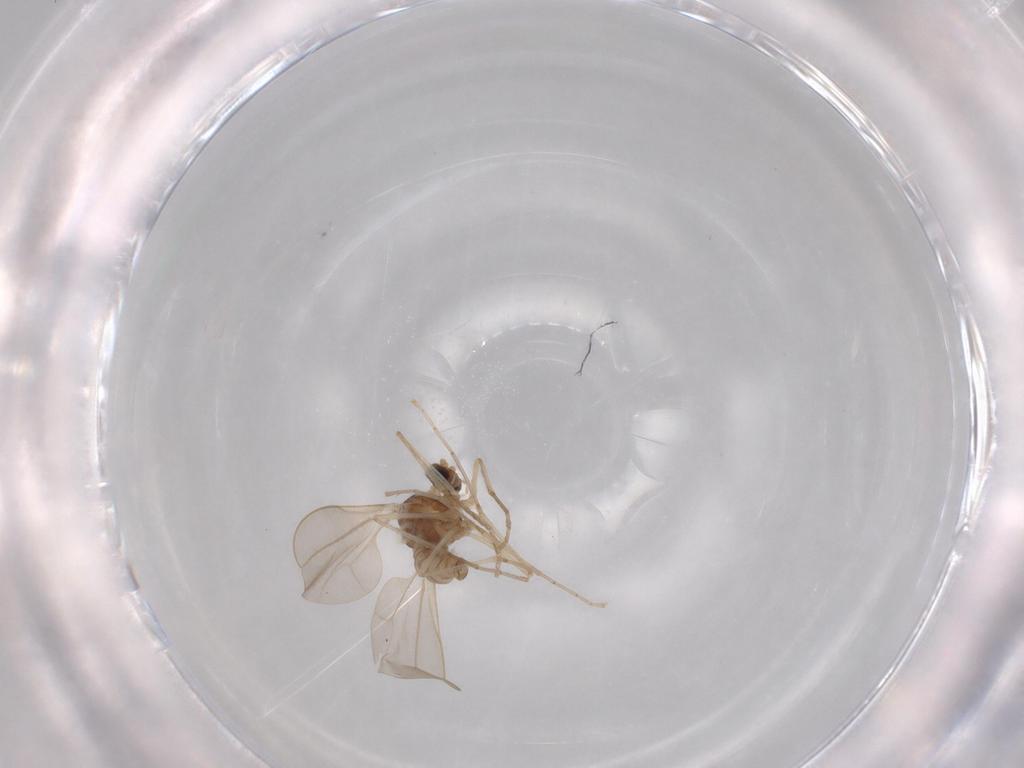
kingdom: Animalia
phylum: Arthropoda
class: Insecta
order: Diptera
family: Cecidomyiidae
